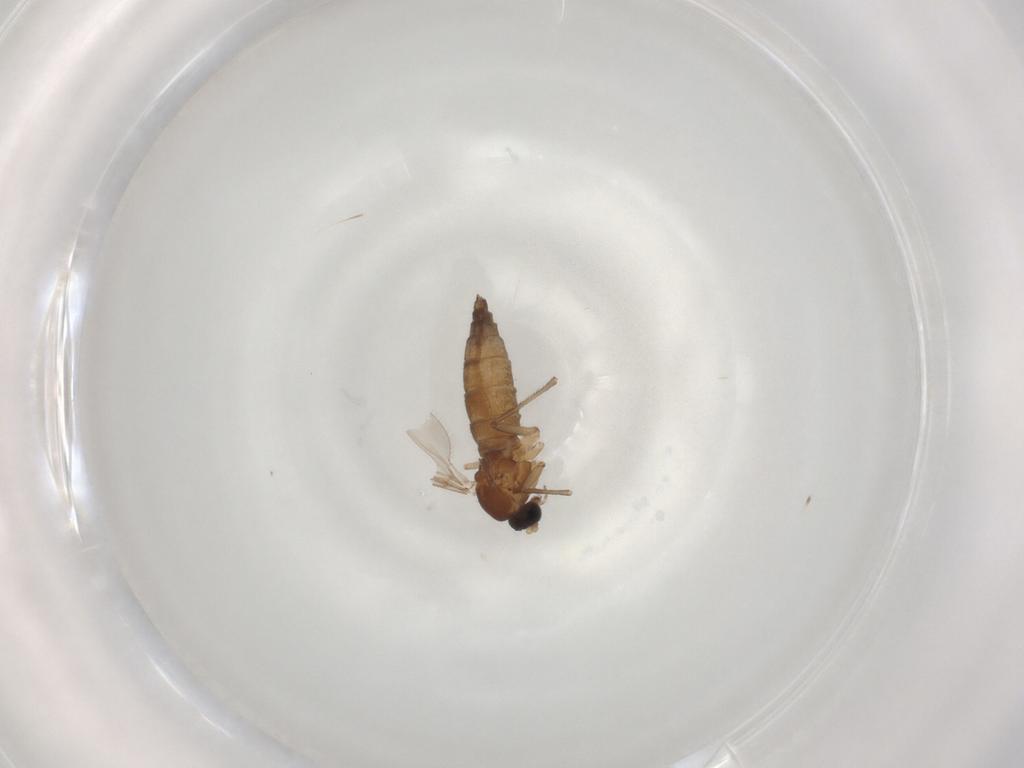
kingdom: Animalia
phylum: Arthropoda
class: Insecta
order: Diptera
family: Sciaridae
